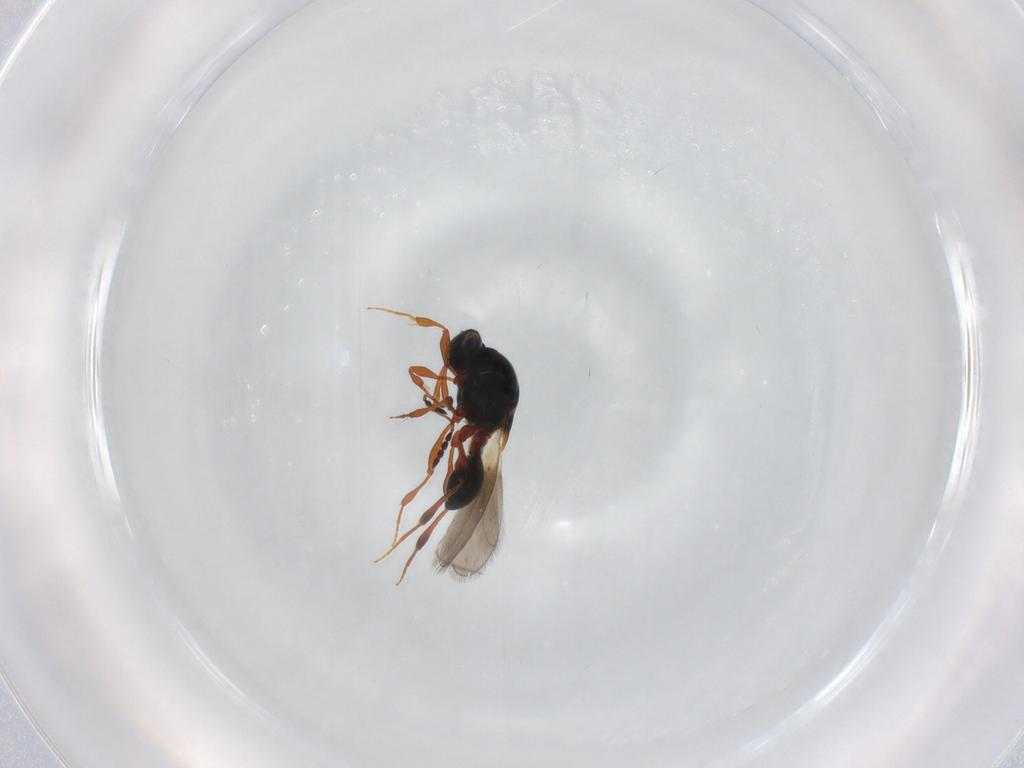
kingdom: Animalia
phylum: Arthropoda
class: Insecta
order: Hymenoptera
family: Platygastridae
